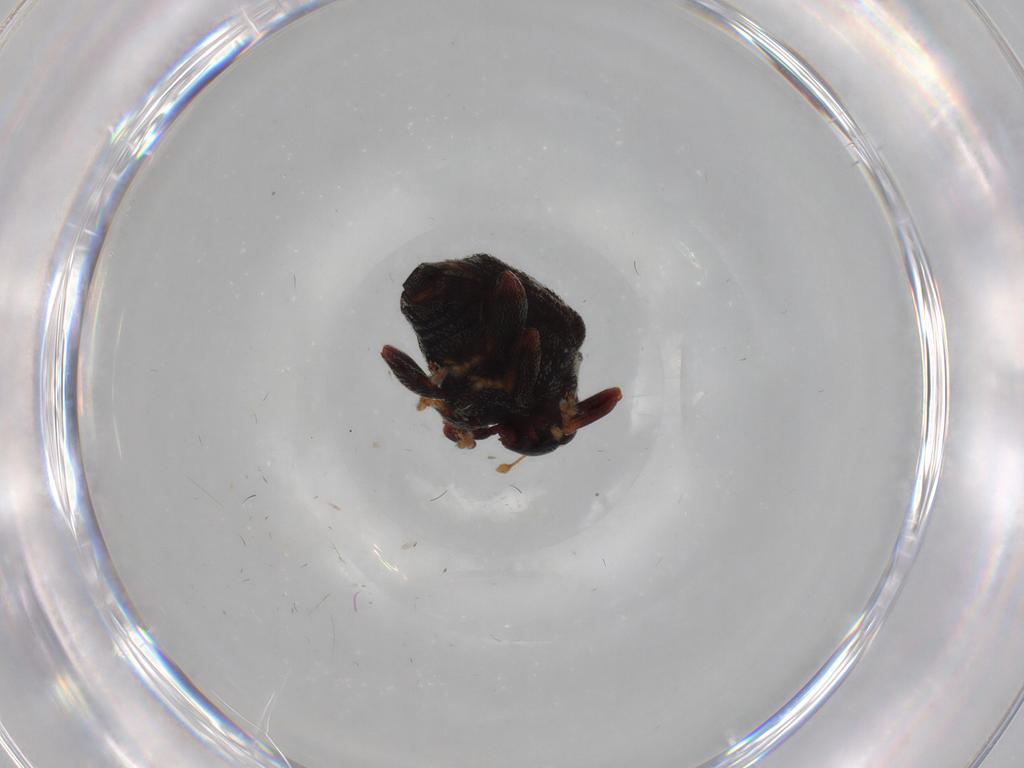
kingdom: Animalia
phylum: Arthropoda
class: Insecta
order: Coleoptera
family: Curculionidae
